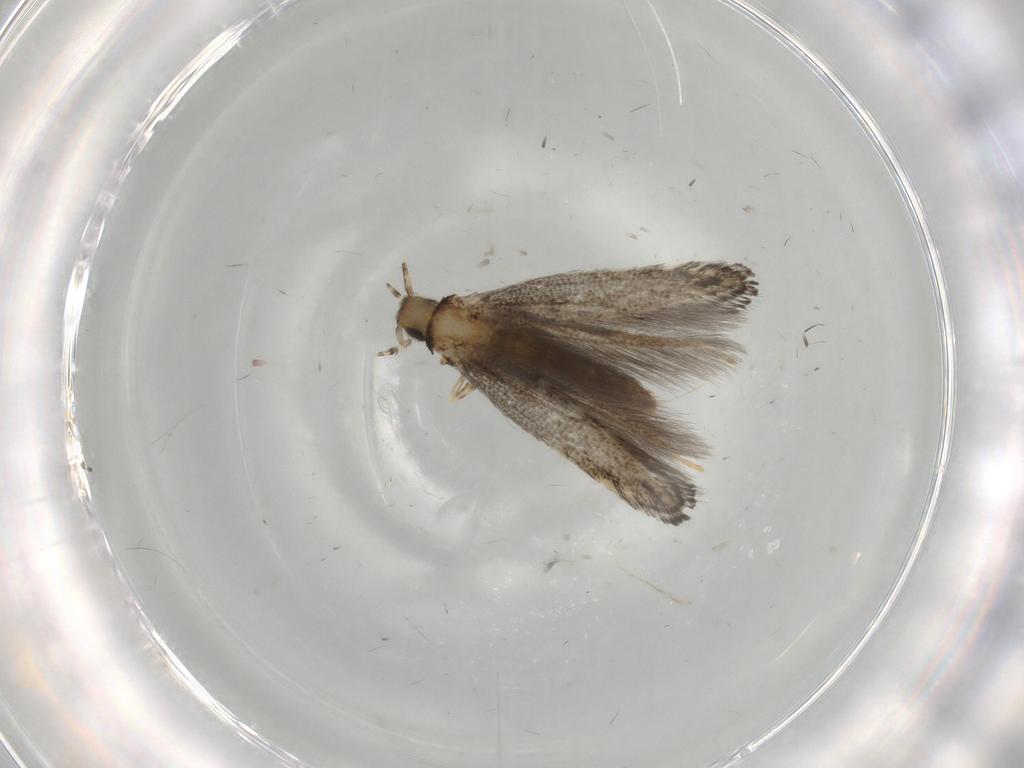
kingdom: Animalia
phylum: Arthropoda
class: Insecta
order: Lepidoptera
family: Gracillariidae
